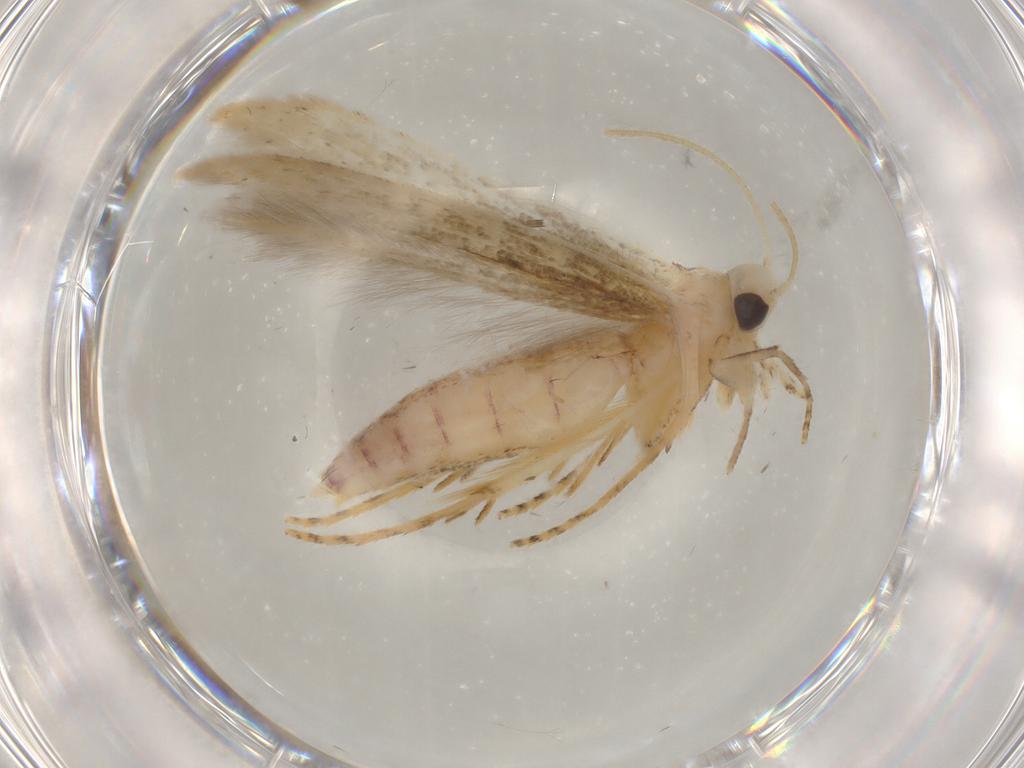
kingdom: Animalia
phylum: Arthropoda
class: Insecta
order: Lepidoptera
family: Batrachedridae
